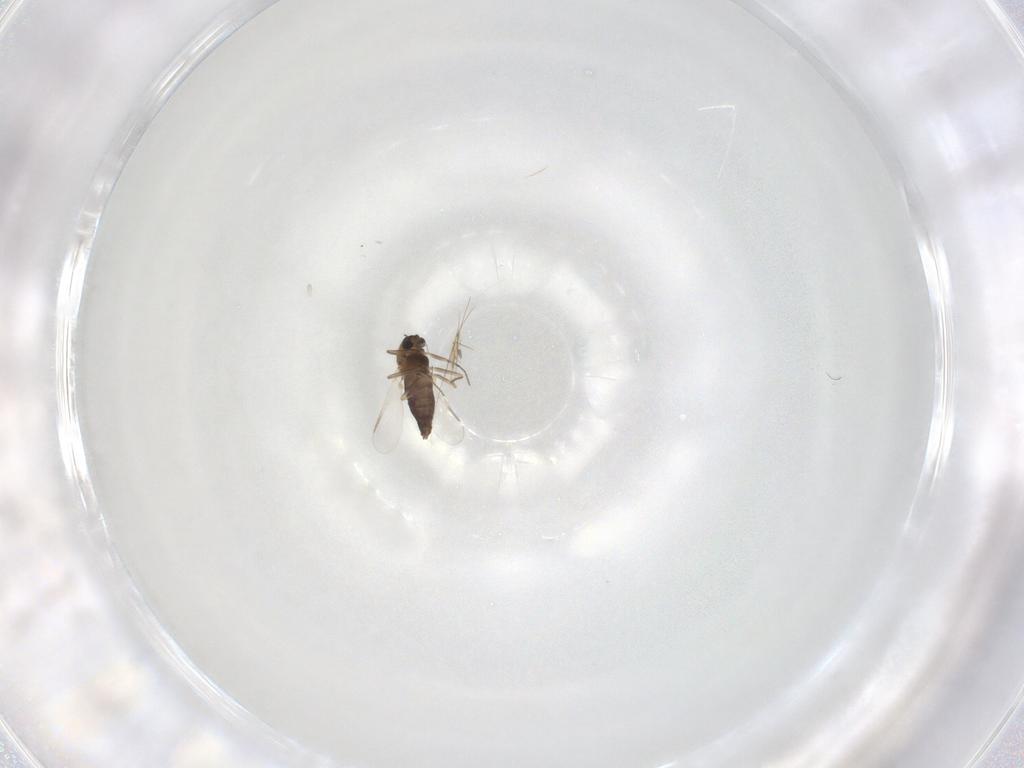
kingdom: Animalia
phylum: Arthropoda
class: Insecta
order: Diptera
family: Chironomidae
